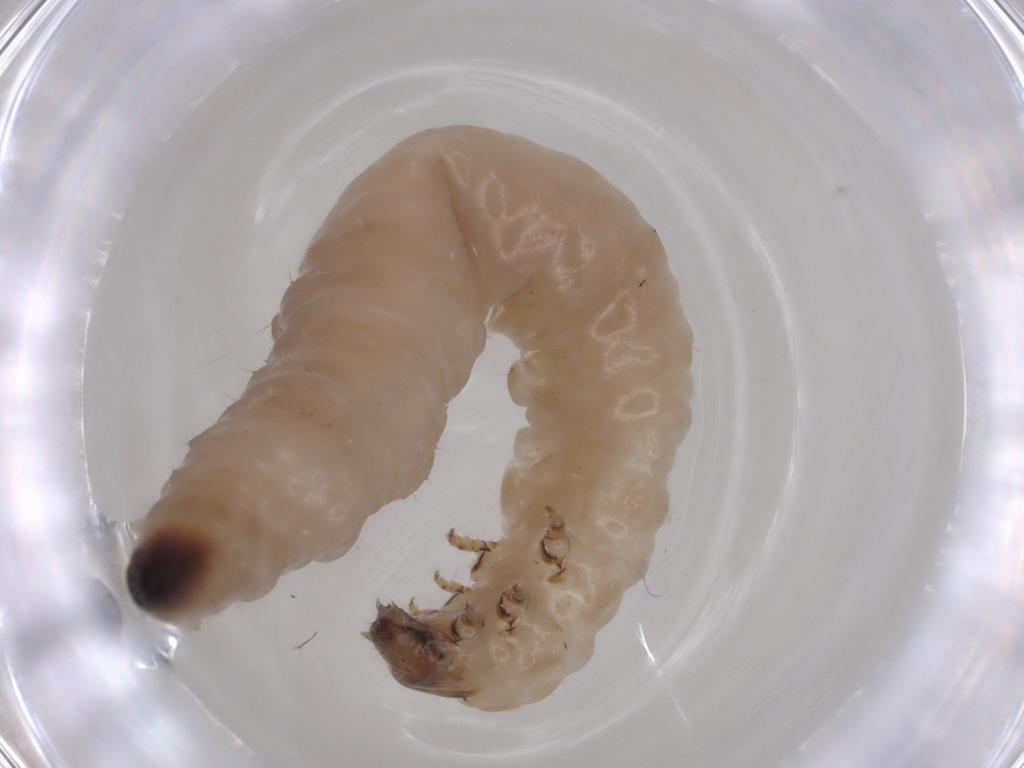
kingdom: Animalia
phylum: Arthropoda
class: Insecta
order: Coleoptera
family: Chrysomelidae
